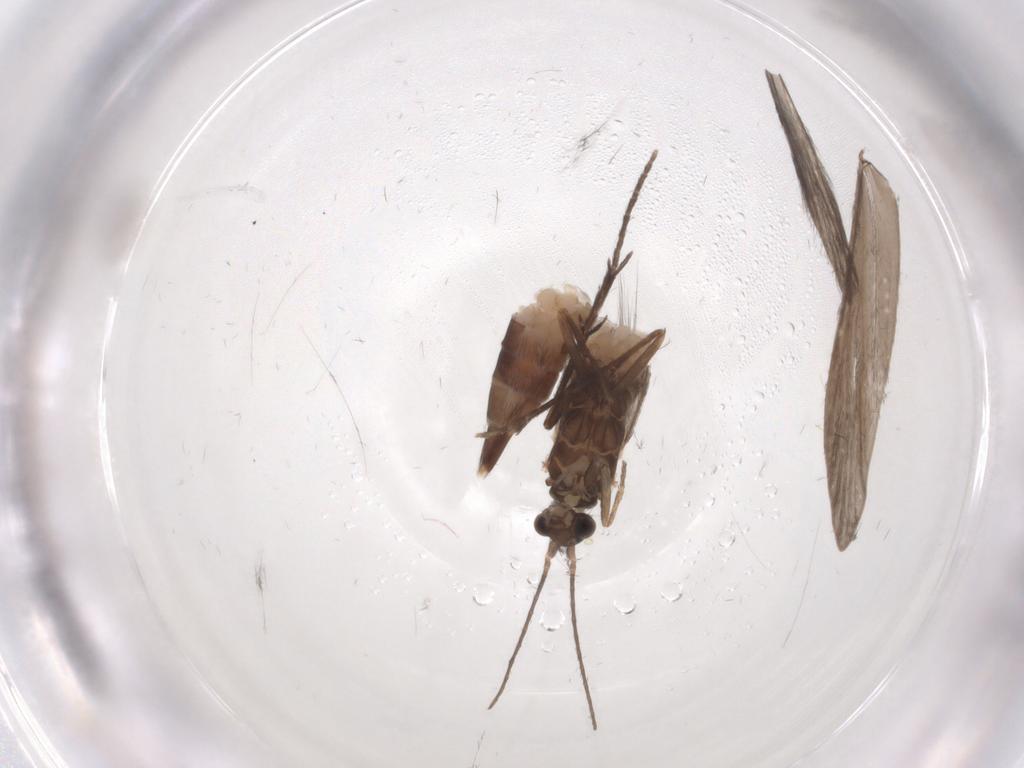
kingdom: Animalia
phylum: Arthropoda
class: Insecta
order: Trichoptera
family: Xiphocentronidae
